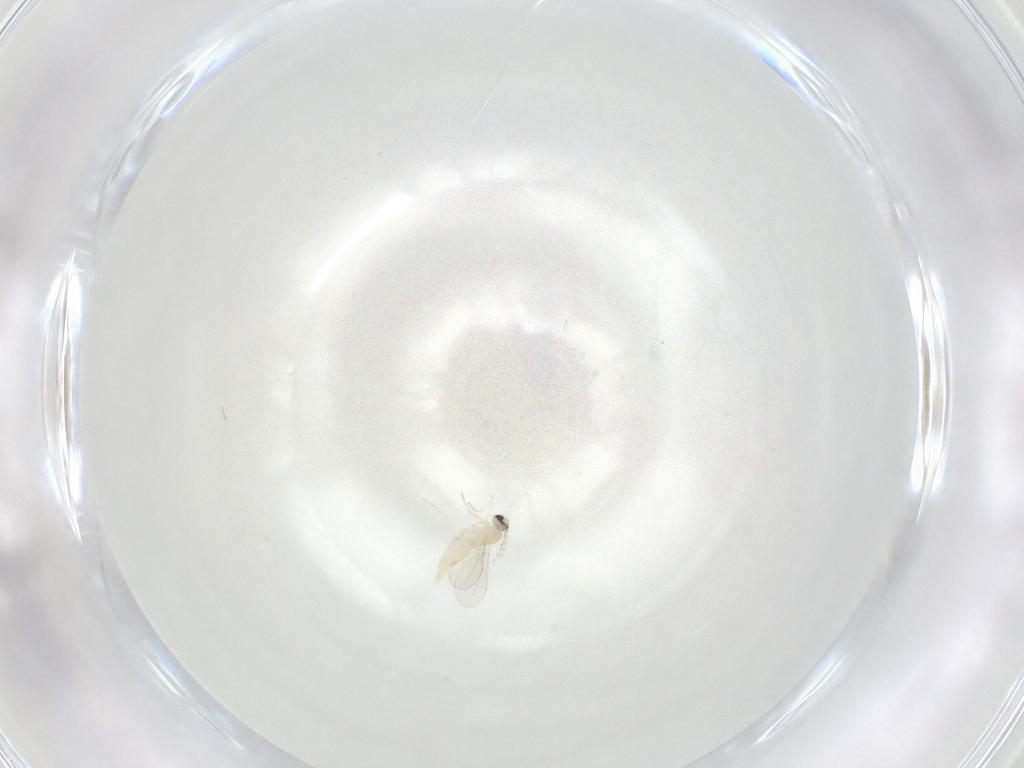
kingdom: Animalia
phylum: Arthropoda
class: Insecta
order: Diptera
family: Cecidomyiidae
